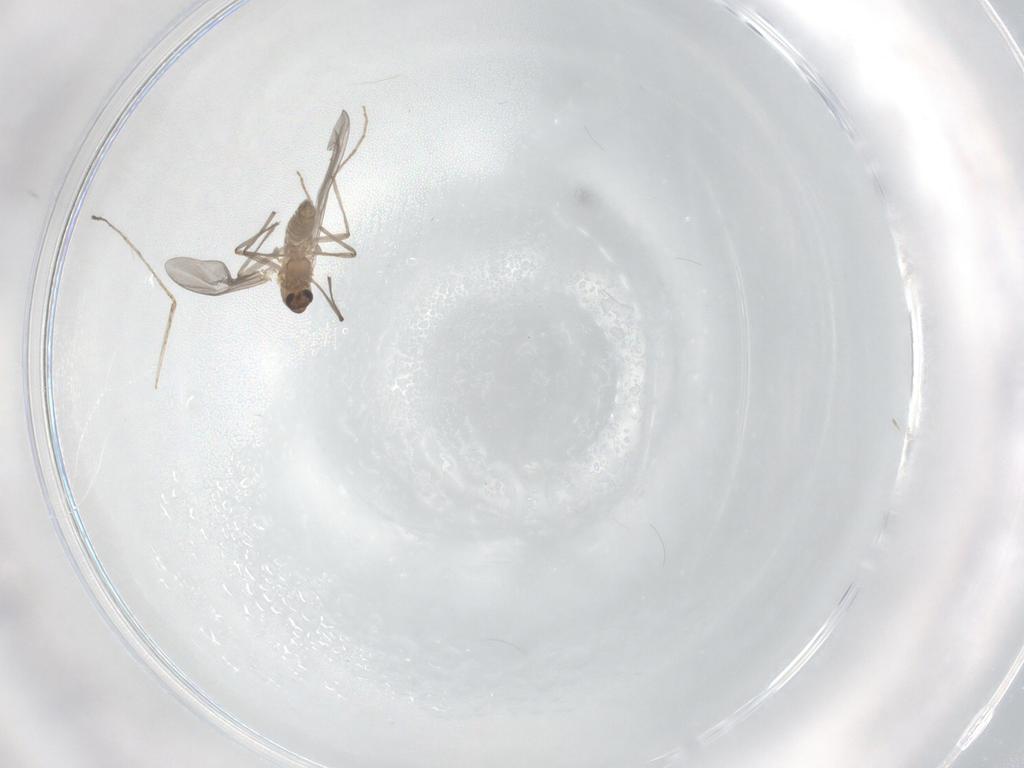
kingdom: Animalia
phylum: Arthropoda
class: Insecta
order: Diptera
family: Chironomidae
